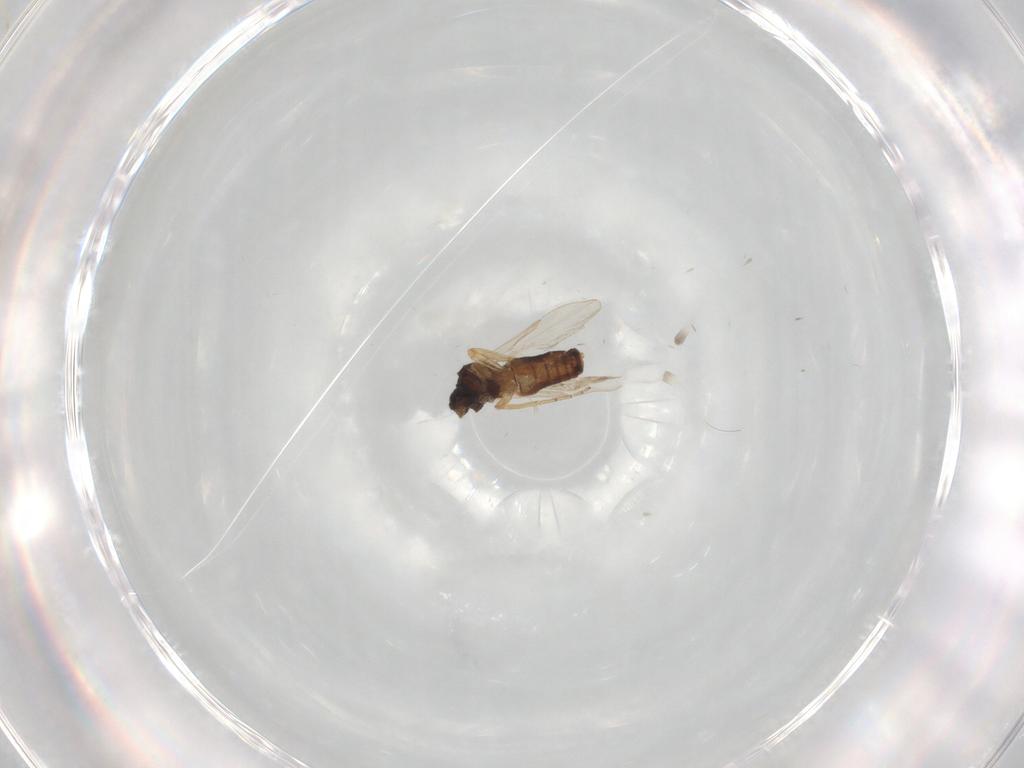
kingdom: Animalia
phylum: Arthropoda
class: Insecta
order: Diptera
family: Ceratopogonidae
